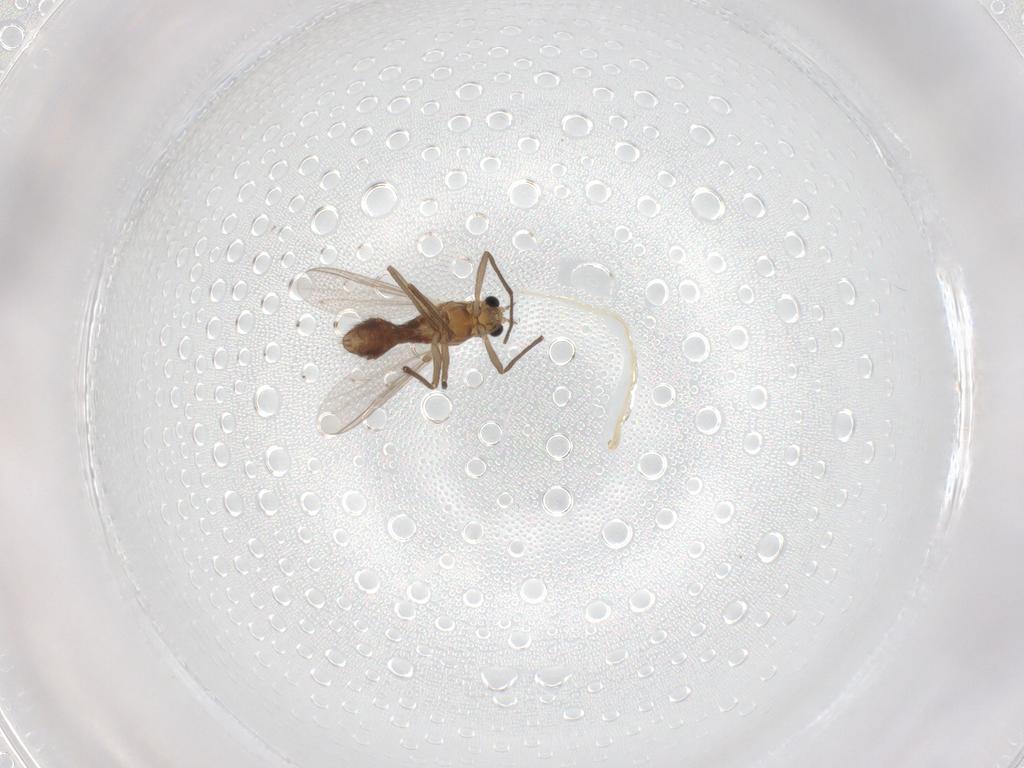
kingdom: Animalia
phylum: Arthropoda
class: Insecta
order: Diptera
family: Chironomidae
